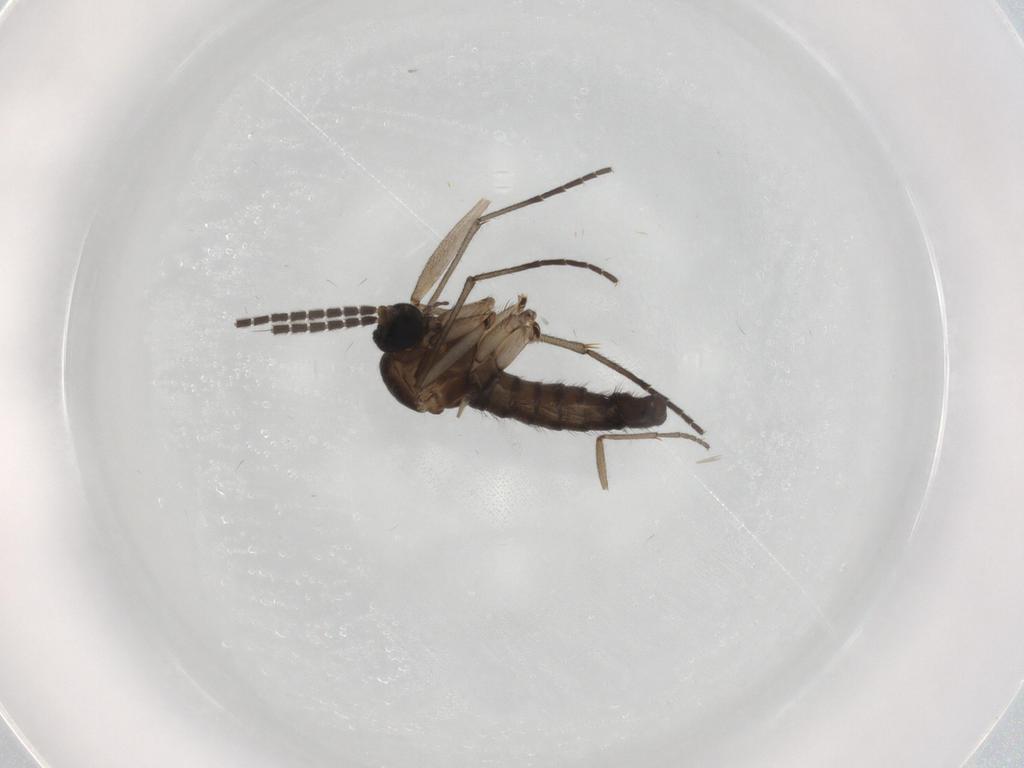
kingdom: Animalia
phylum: Arthropoda
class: Insecta
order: Diptera
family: Sciaridae
